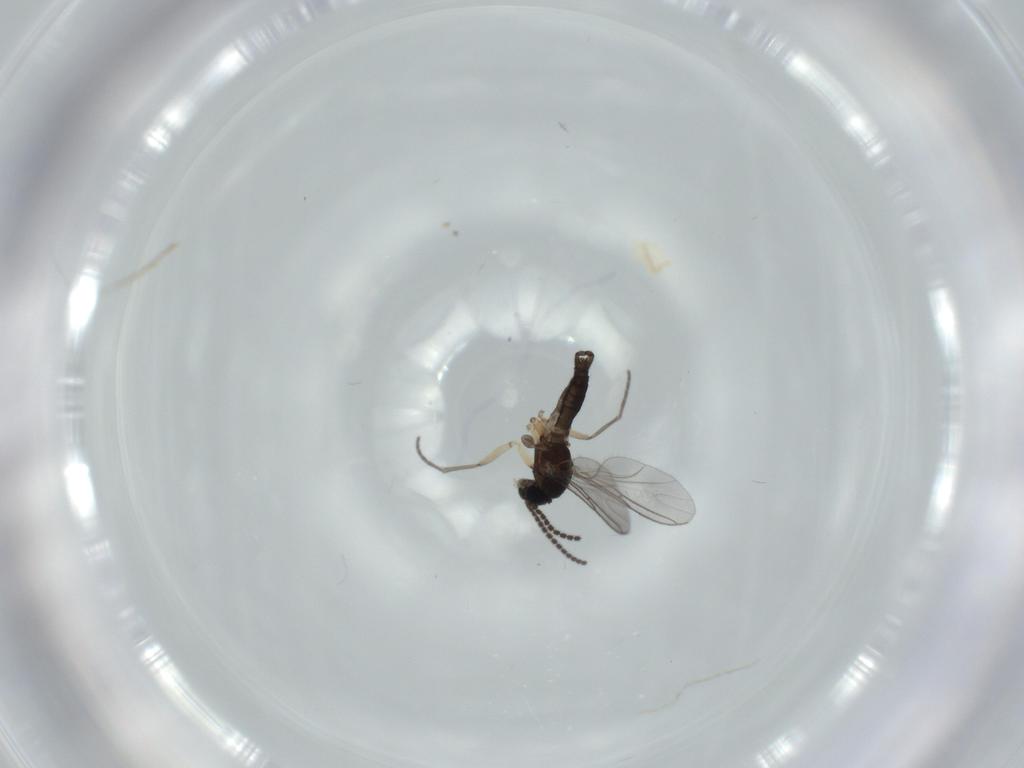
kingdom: Animalia
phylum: Arthropoda
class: Insecta
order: Diptera
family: Sciaridae
